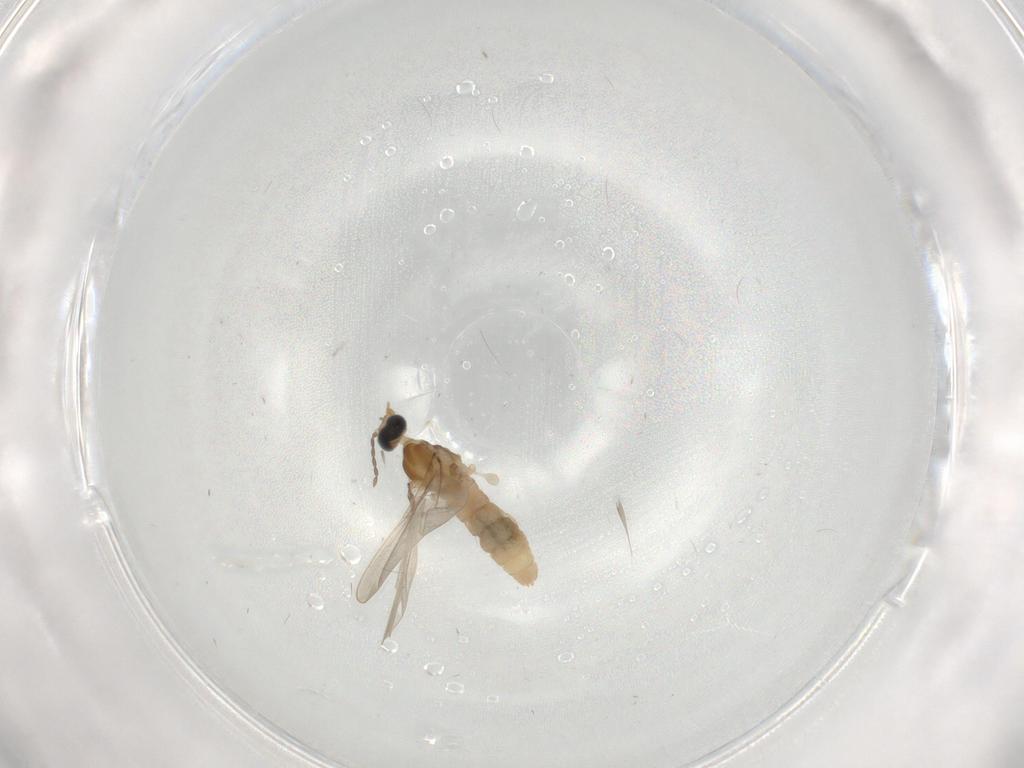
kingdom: Animalia
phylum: Arthropoda
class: Insecta
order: Diptera
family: Cecidomyiidae
